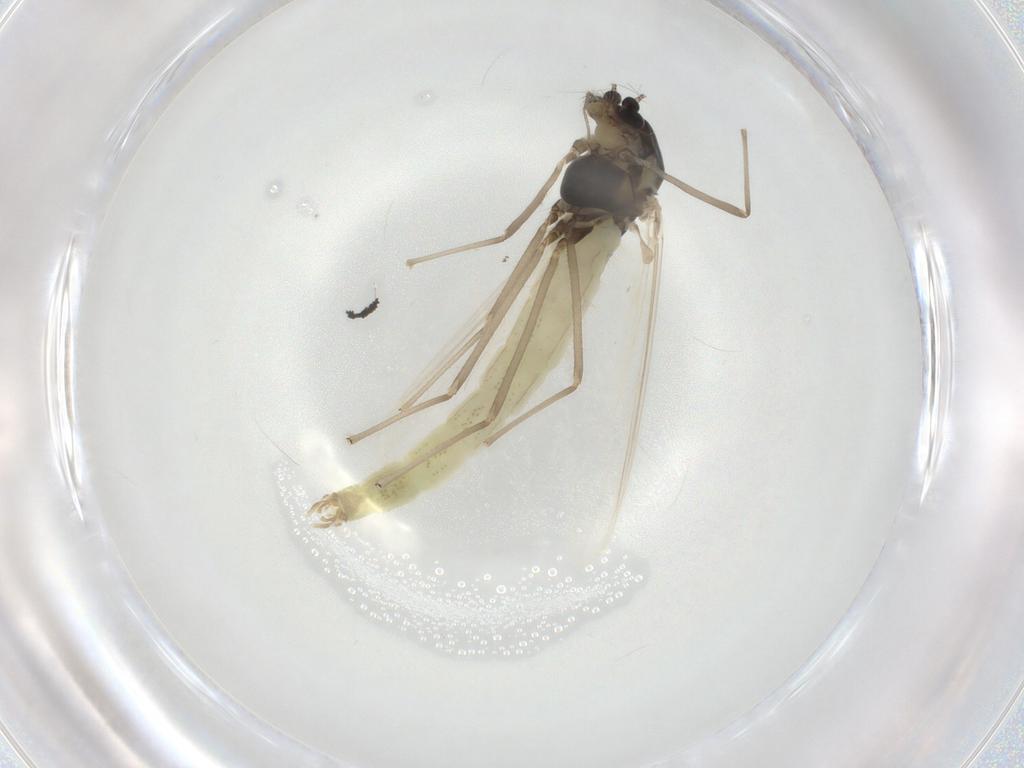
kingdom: Animalia
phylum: Arthropoda
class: Insecta
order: Diptera
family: Chironomidae
